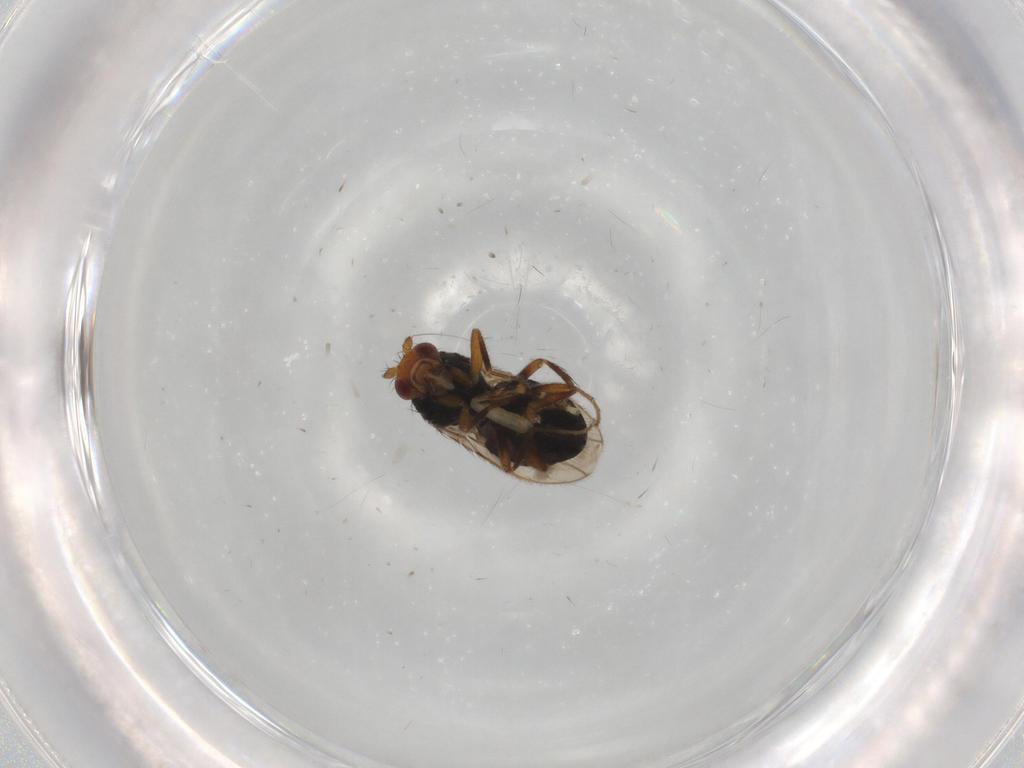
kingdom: Animalia
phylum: Arthropoda
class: Insecta
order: Diptera
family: Sphaeroceridae
